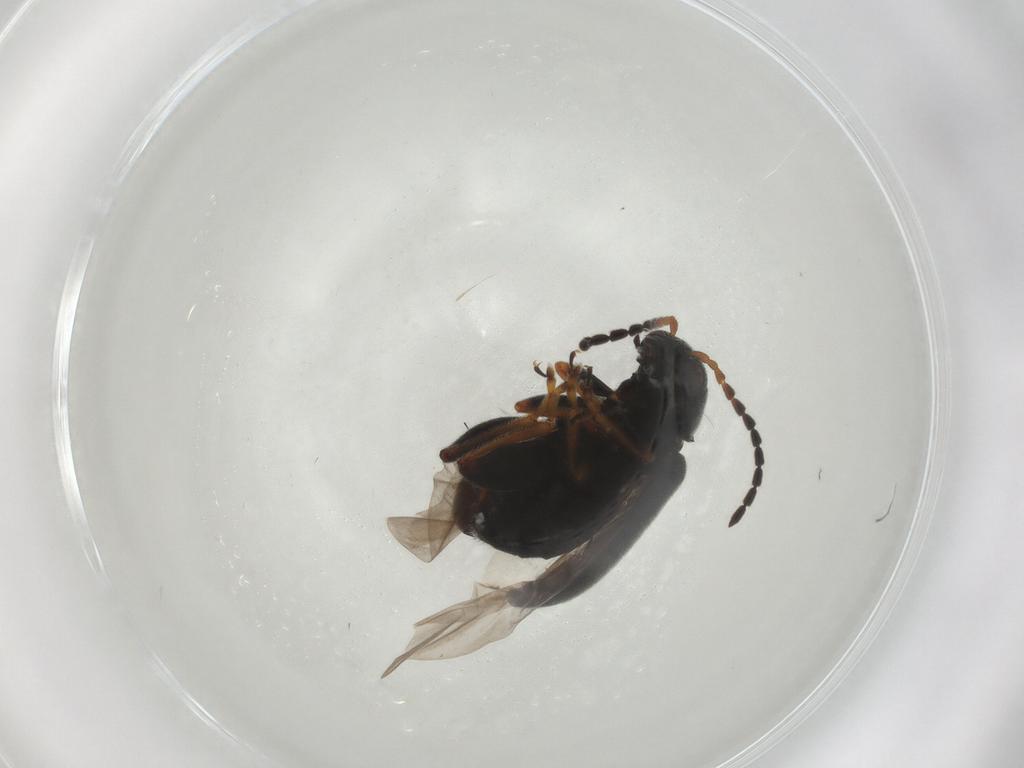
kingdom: Animalia
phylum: Arthropoda
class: Insecta
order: Coleoptera
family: Chrysomelidae
